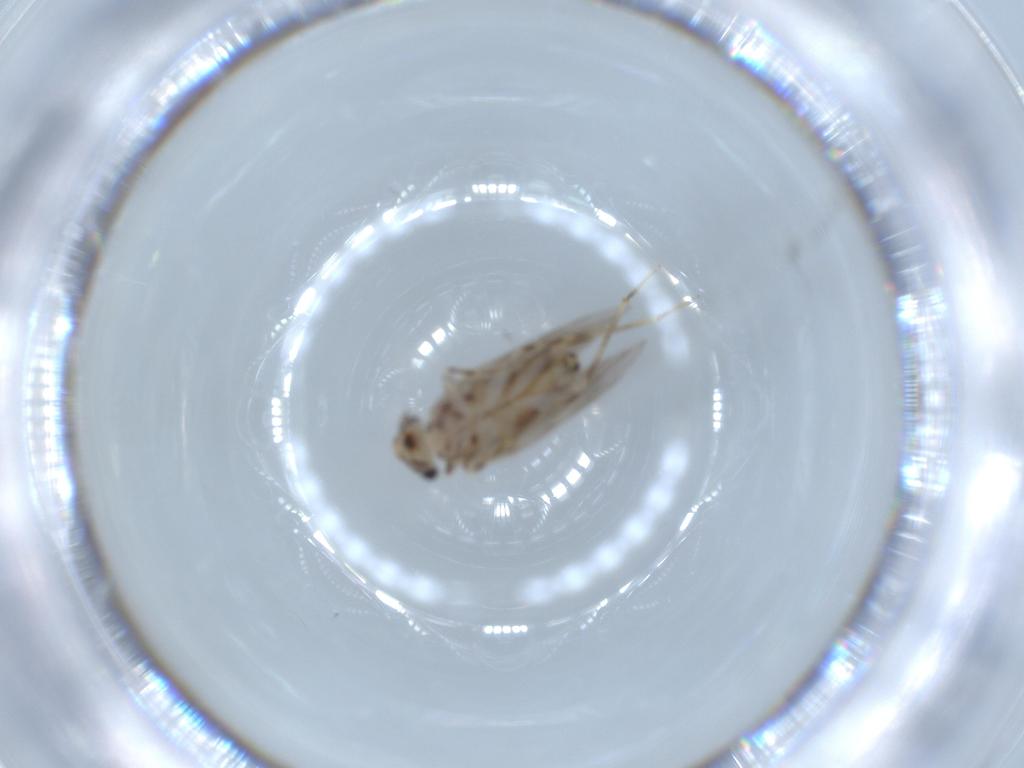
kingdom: Animalia
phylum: Arthropoda
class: Insecta
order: Psocodea
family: Lepidopsocidae
